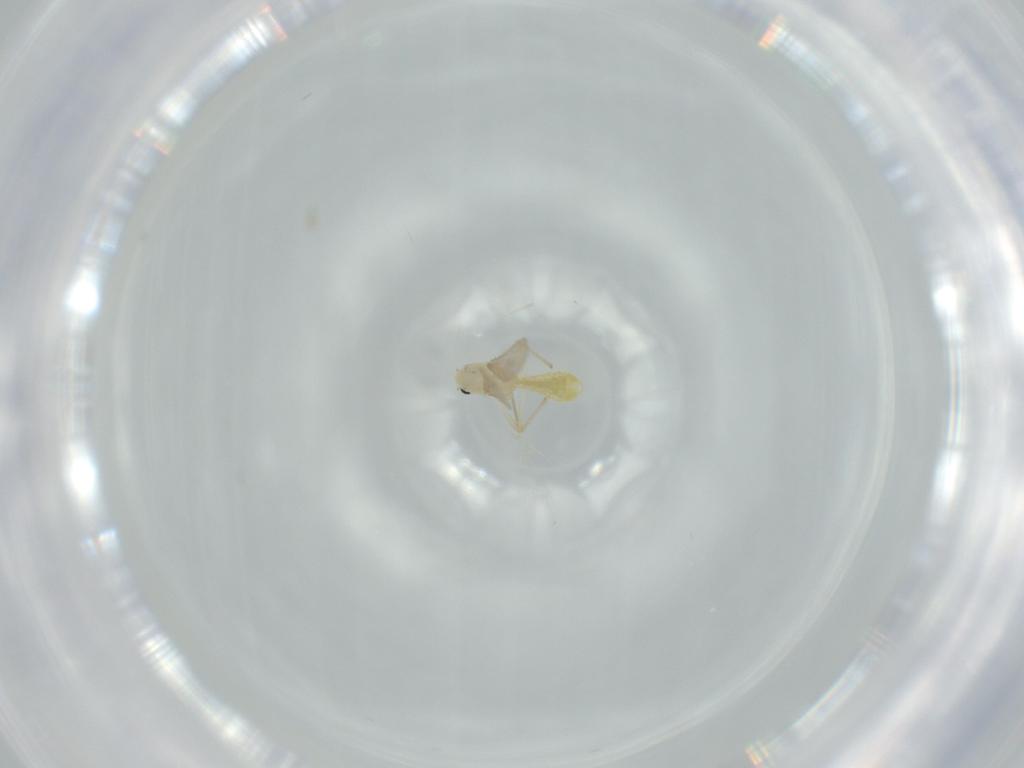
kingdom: Animalia
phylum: Arthropoda
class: Insecta
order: Diptera
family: Chironomidae
